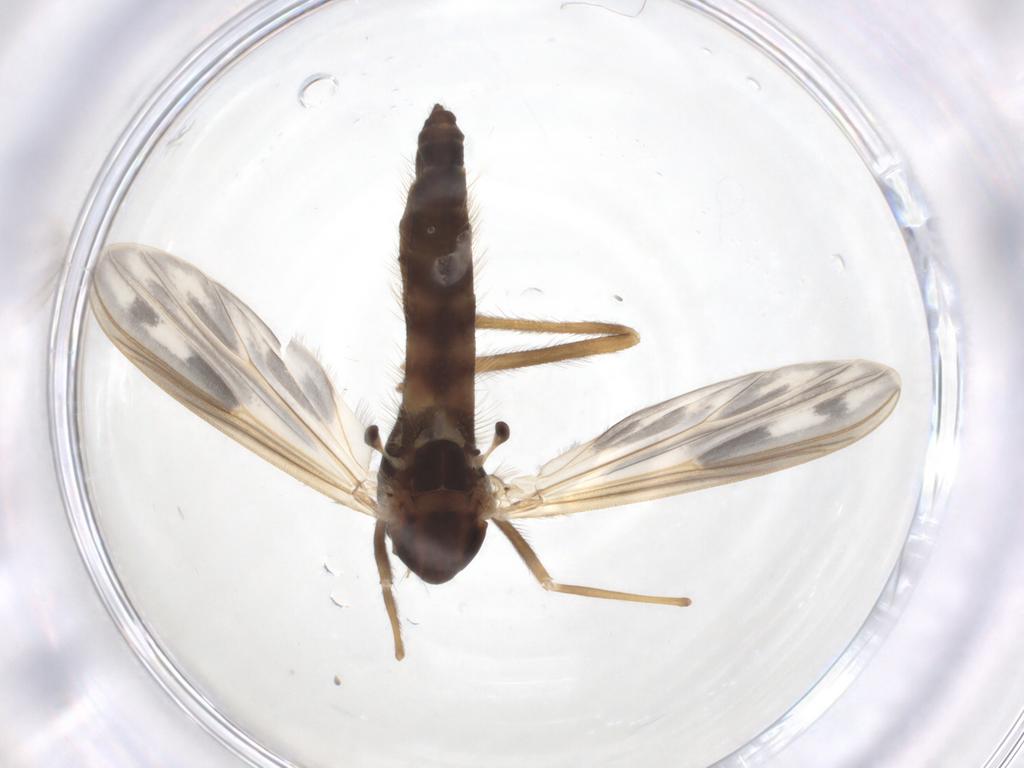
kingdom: Animalia
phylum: Arthropoda
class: Insecta
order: Diptera
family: Chironomidae
